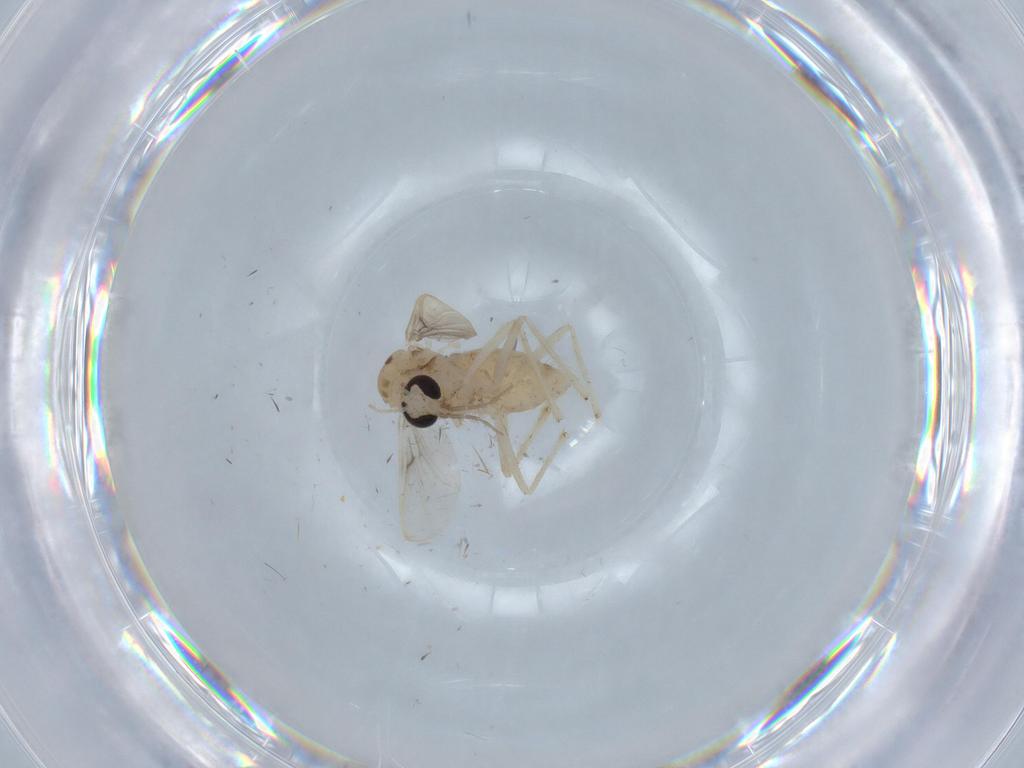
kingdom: Animalia
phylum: Arthropoda
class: Insecta
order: Diptera
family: Chironomidae
